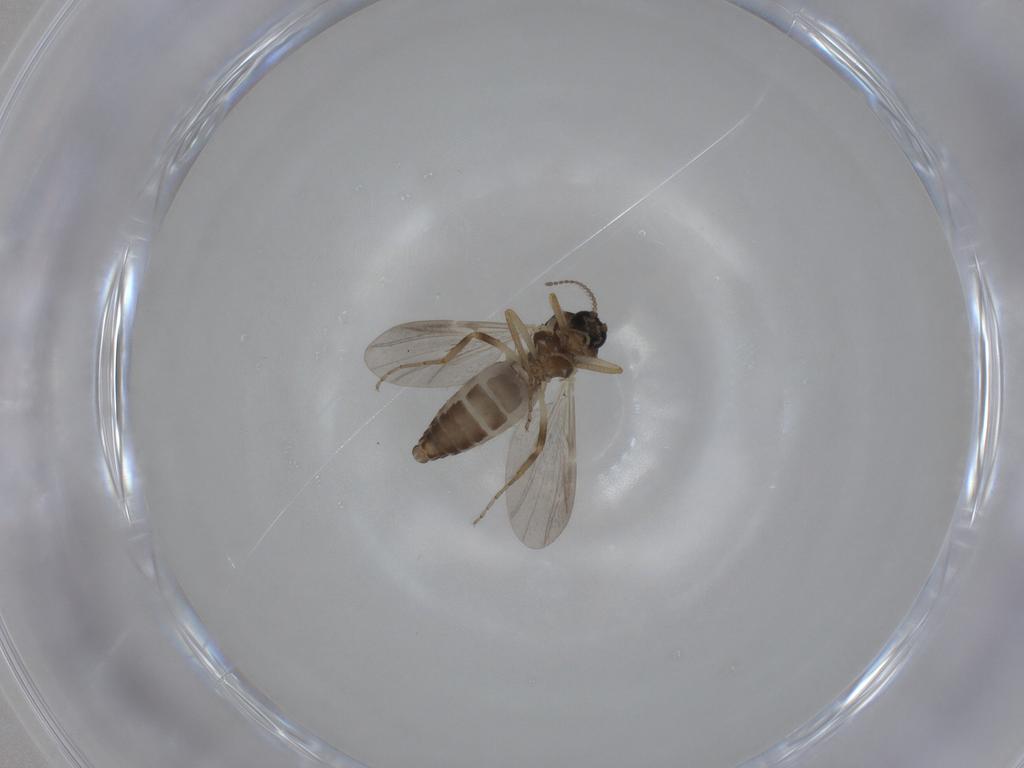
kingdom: Animalia
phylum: Arthropoda
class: Insecta
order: Diptera
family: Ceratopogonidae
